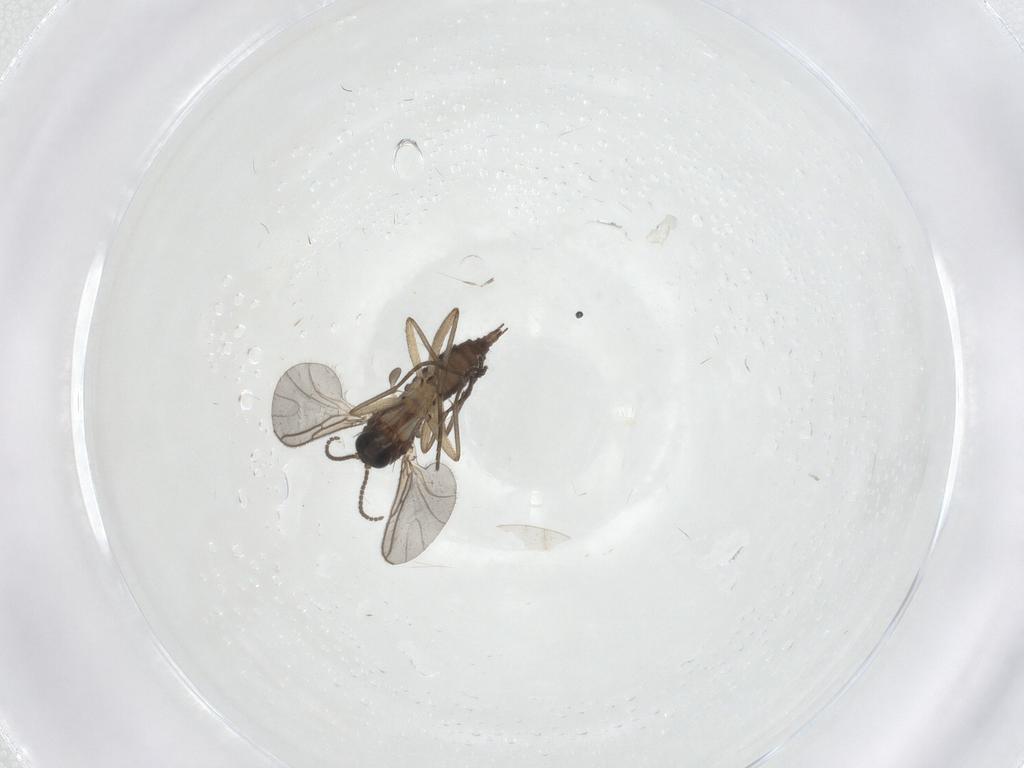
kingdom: Animalia
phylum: Arthropoda
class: Insecta
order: Diptera
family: Sciaridae
